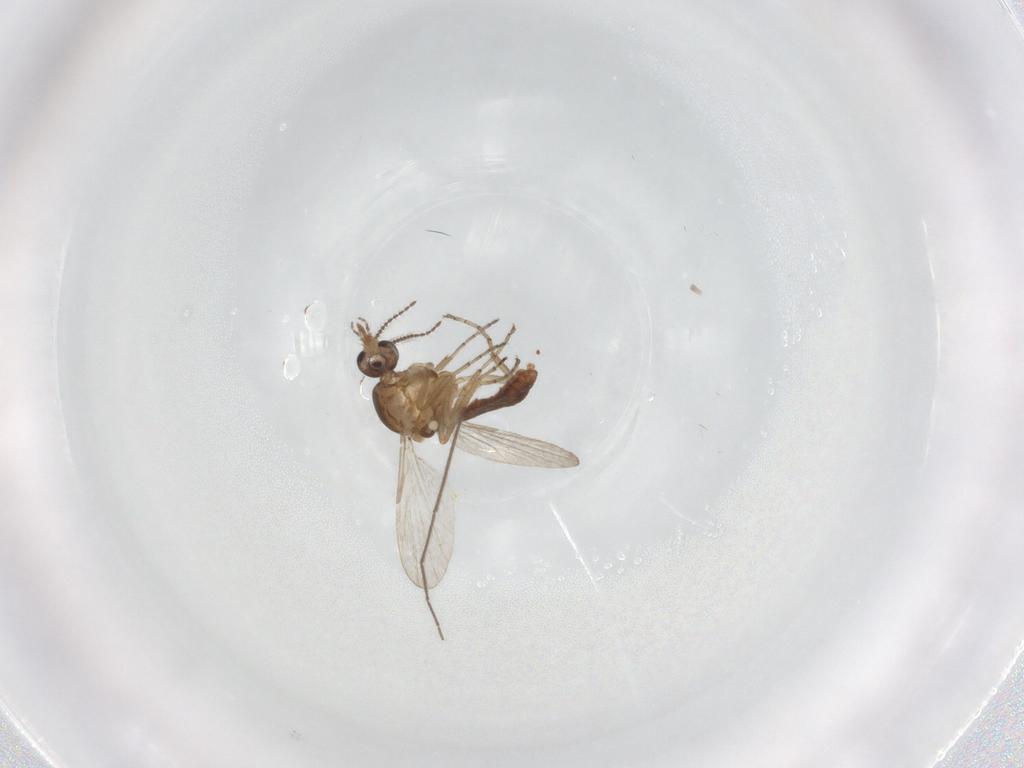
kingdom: Animalia
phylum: Arthropoda
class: Insecta
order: Diptera
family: Ceratopogonidae
